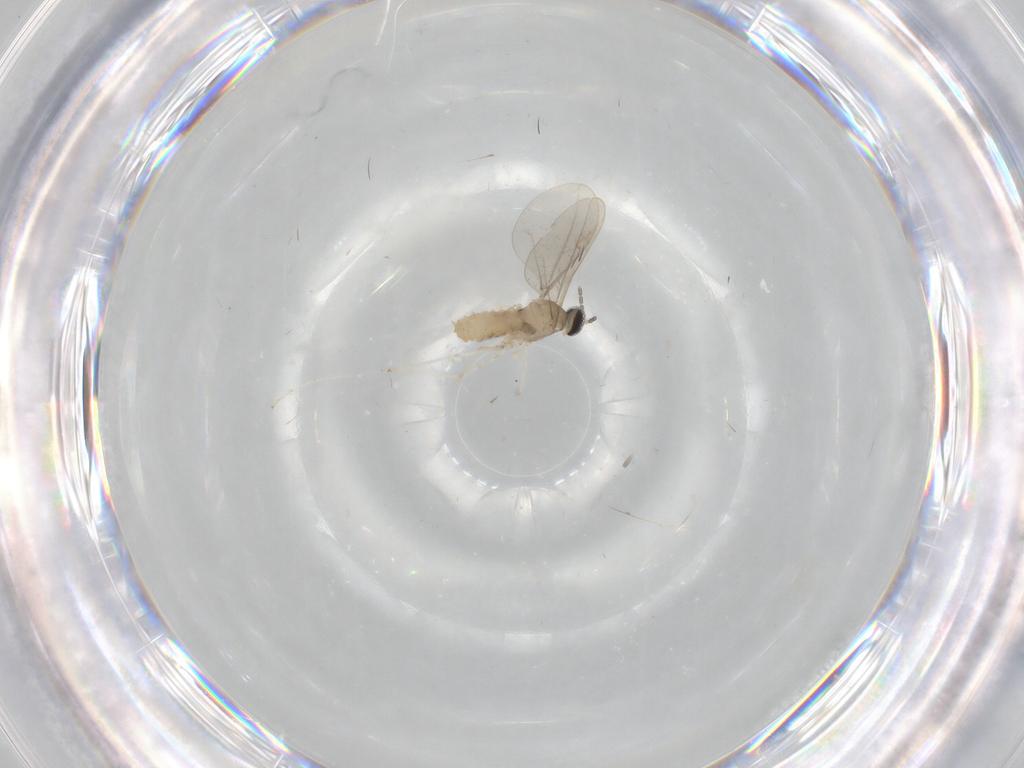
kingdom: Animalia
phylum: Arthropoda
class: Insecta
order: Diptera
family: Cecidomyiidae
